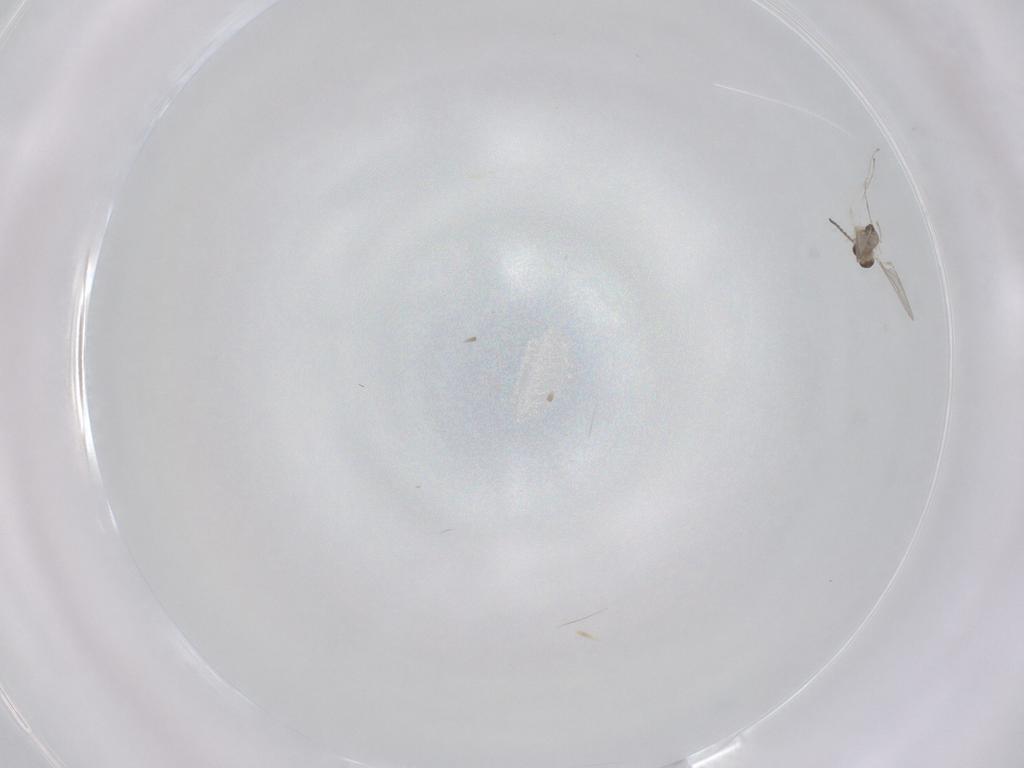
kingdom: Animalia
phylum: Arthropoda
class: Insecta
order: Diptera
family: Cecidomyiidae
